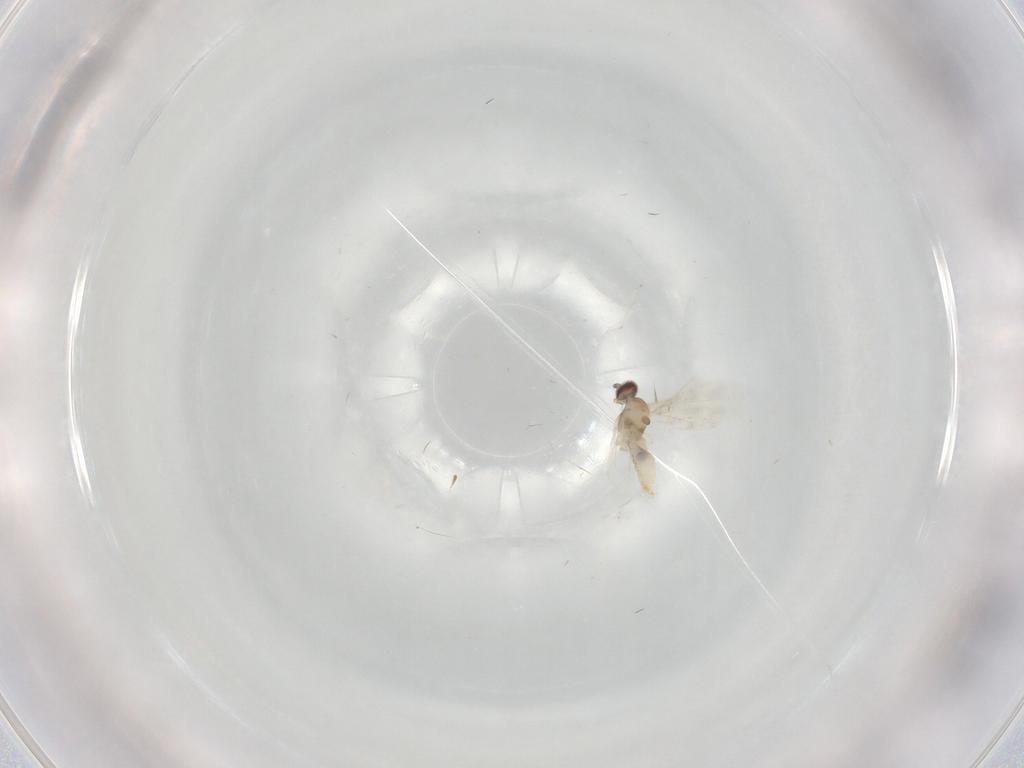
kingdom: Animalia
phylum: Arthropoda
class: Insecta
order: Diptera
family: Cecidomyiidae
